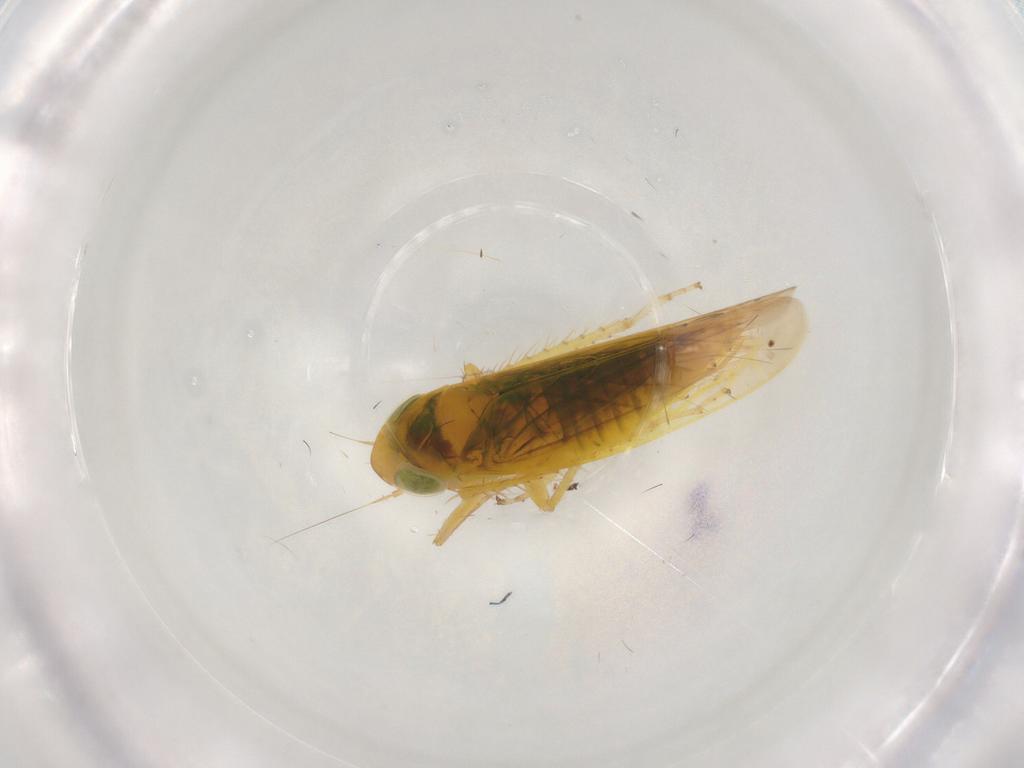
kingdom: Animalia
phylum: Arthropoda
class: Insecta
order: Hemiptera
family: Cicadellidae
